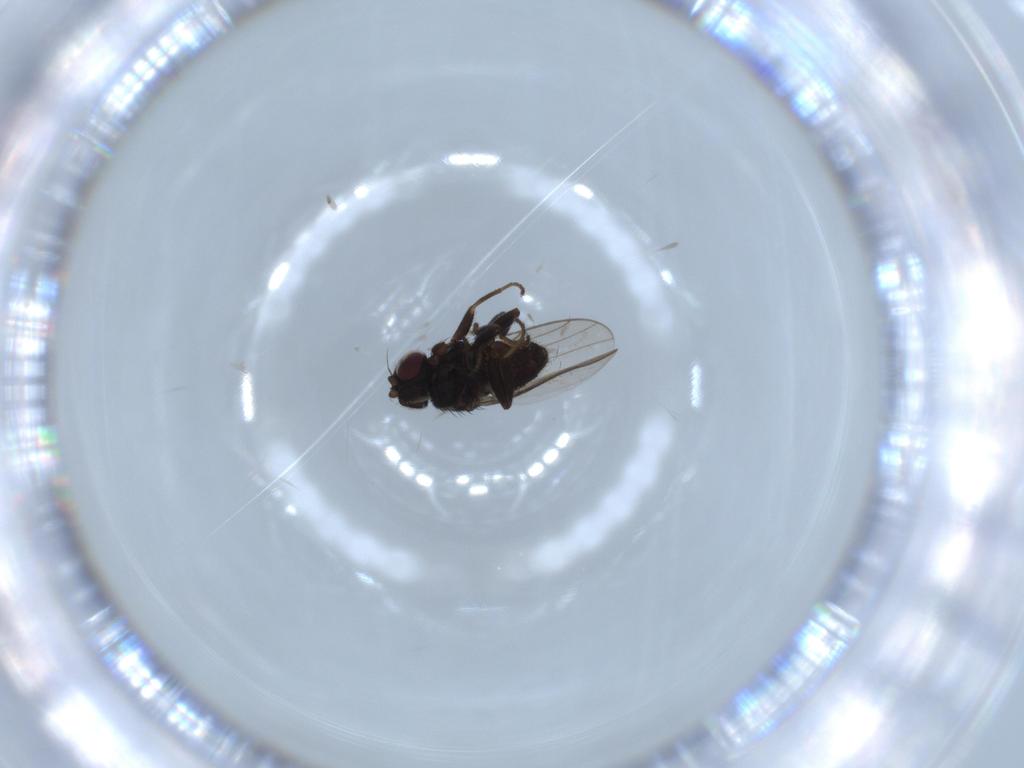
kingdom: Animalia
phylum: Arthropoda
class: Insecta
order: Diptera
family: Chloropidae
